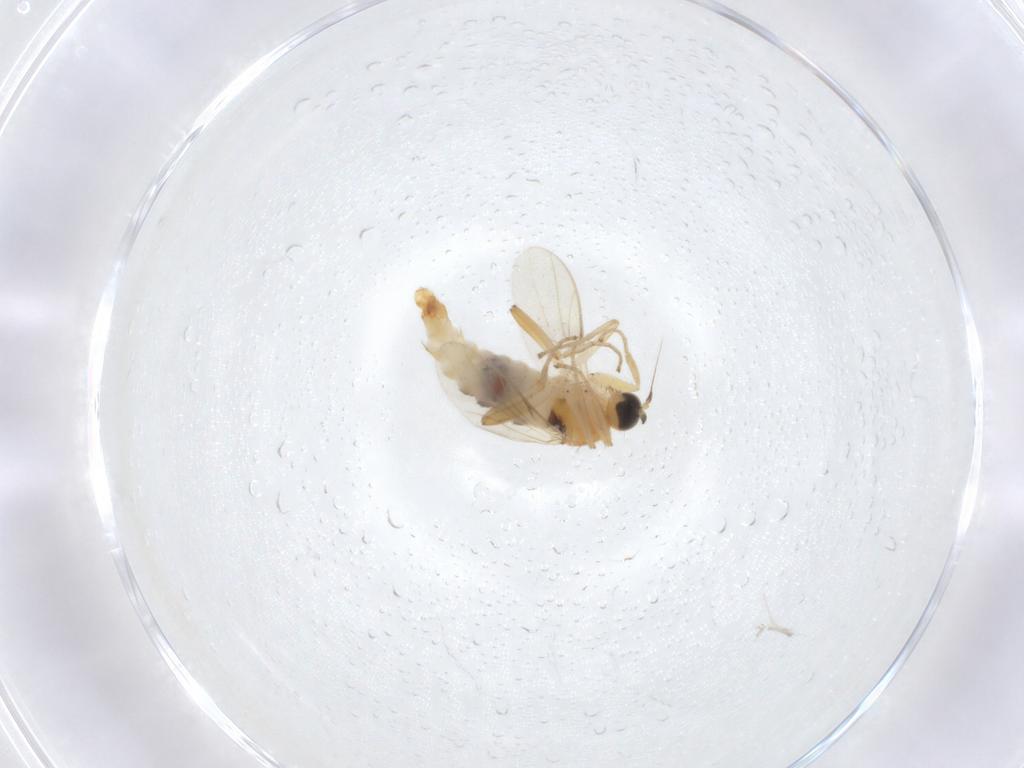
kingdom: Animalia
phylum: Arthropoda
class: Insecta
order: Diptera
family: Hybotidae
